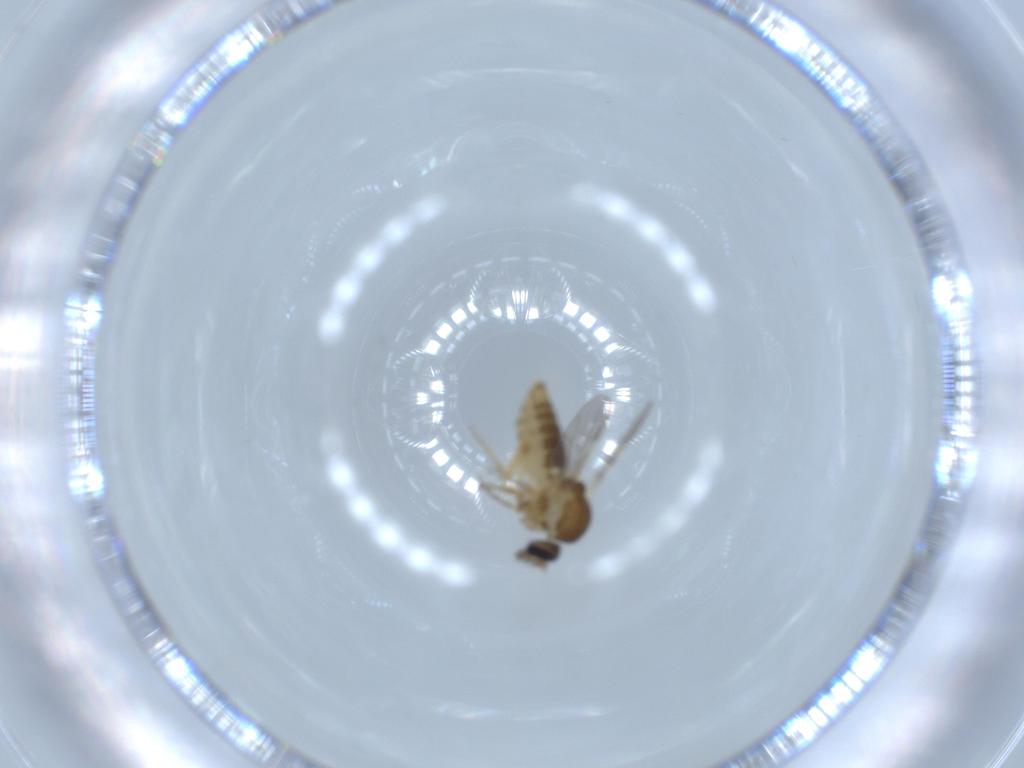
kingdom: Animalia
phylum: Arthropoda
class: Insecta
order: Diptera
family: Ceratopogonidae
